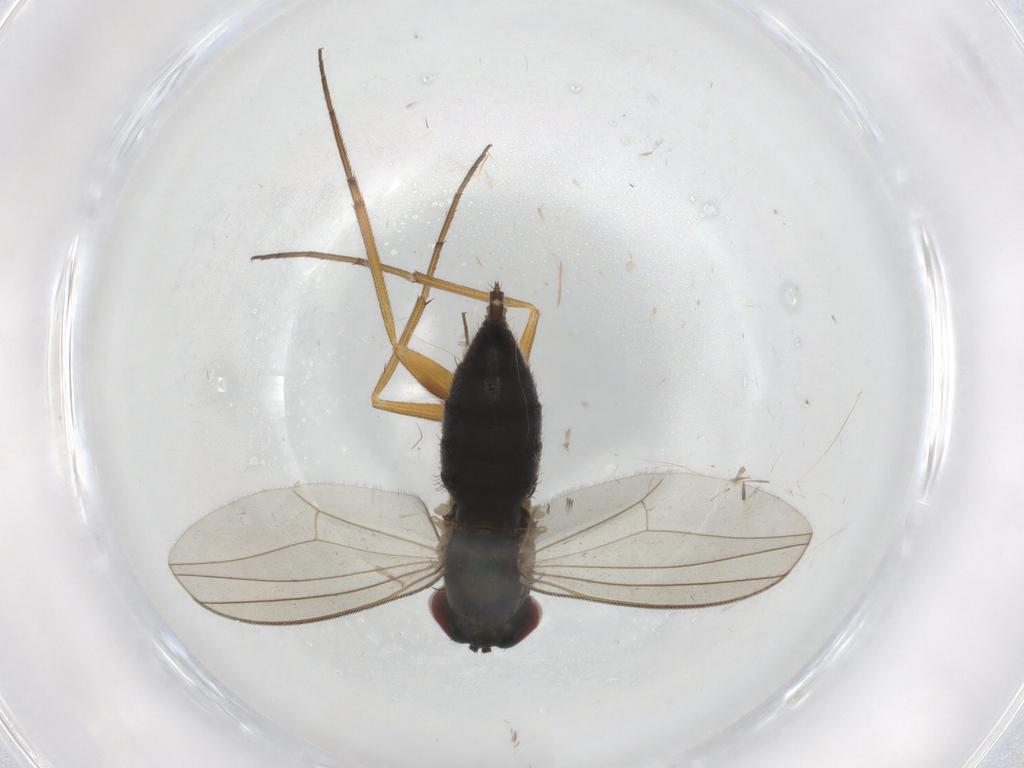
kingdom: Animalia
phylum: Arthropoda
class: Insecta
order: Diptera
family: Dolichopodidae
